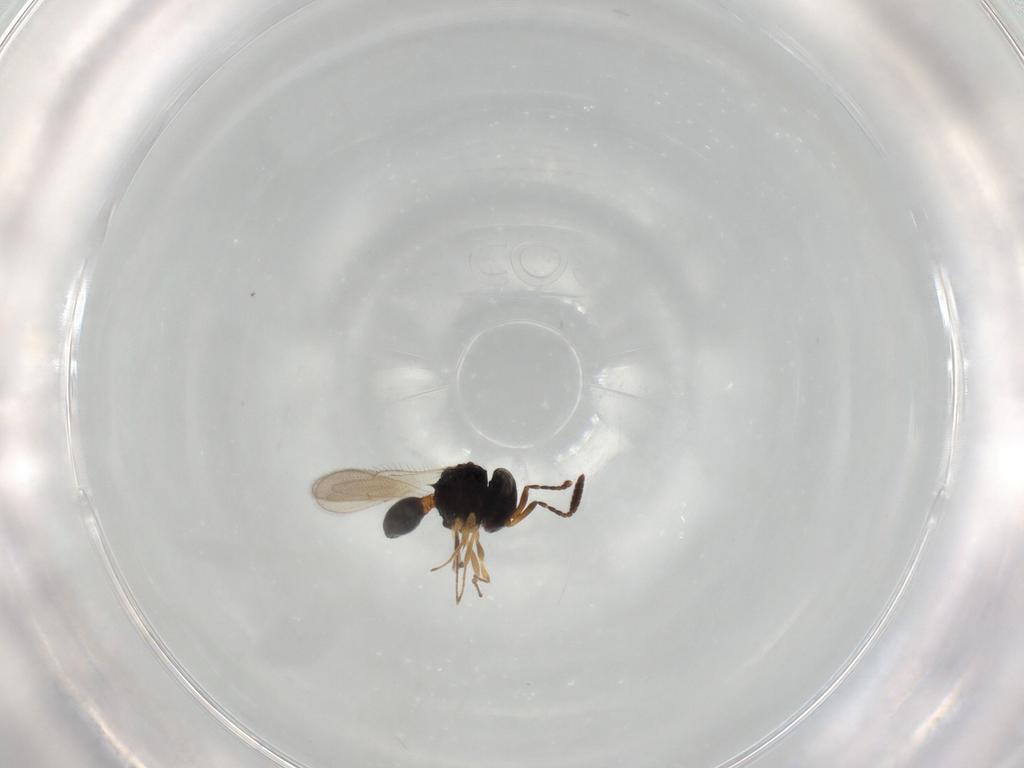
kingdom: Animalia
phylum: Arthropoda
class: Insecta
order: Hymenoptera
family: Scelionidae
